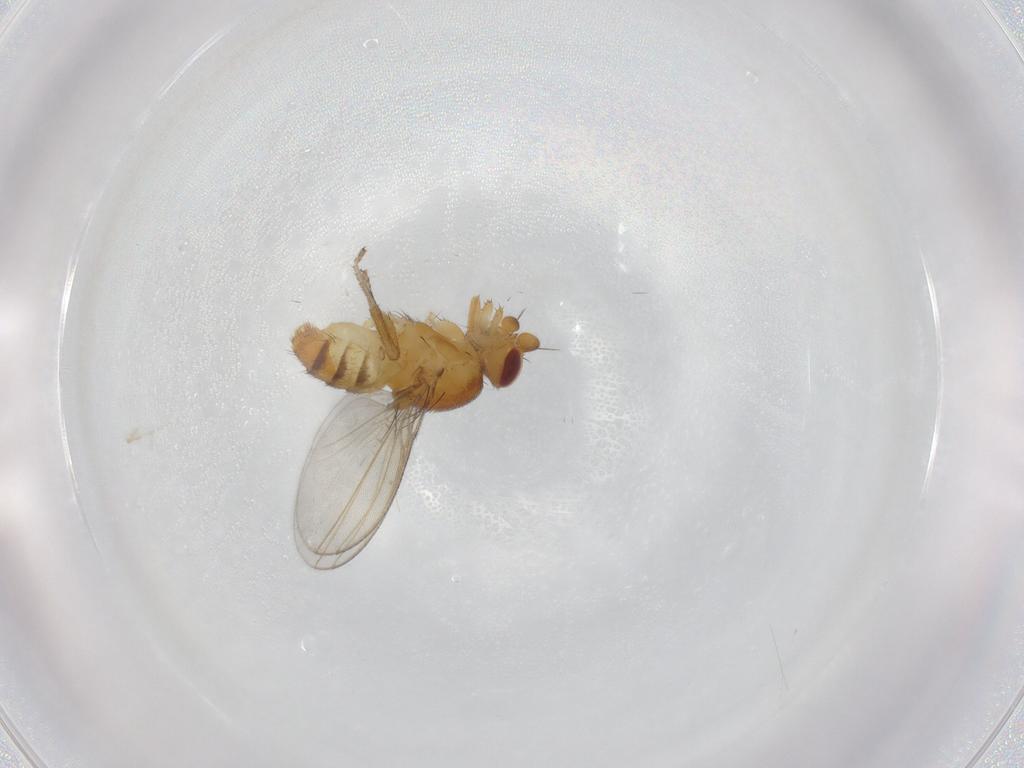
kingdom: Animalia
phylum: Arthropoda
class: Insecta
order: Diptera
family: Cecidomyiidae
